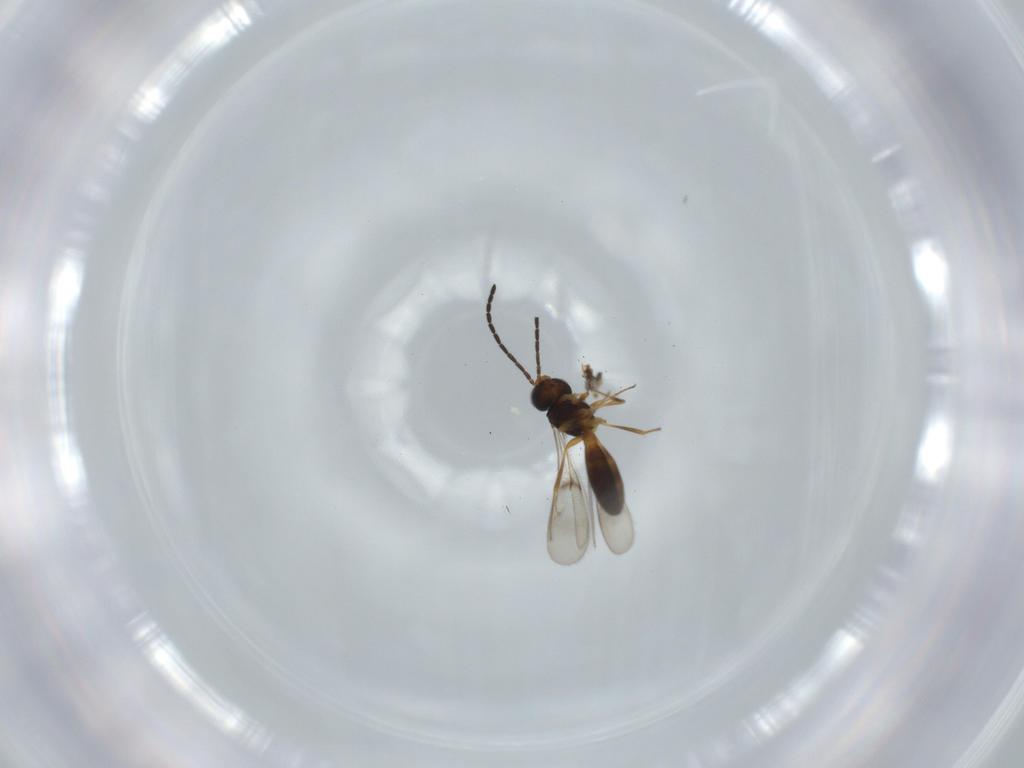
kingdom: Animalia
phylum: Arthropoda
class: Insecta
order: Hymenoptera
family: Scelionidae
